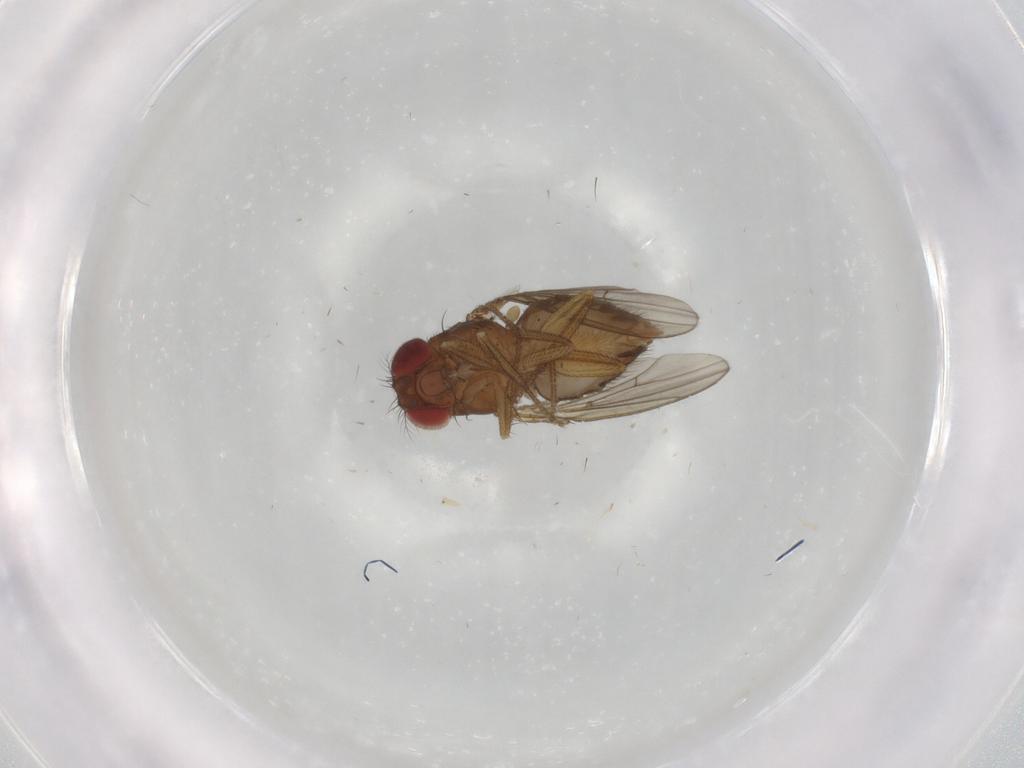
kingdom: Animalia
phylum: Arthropoda
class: Insecta
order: Diptera
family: Drosophilidae
